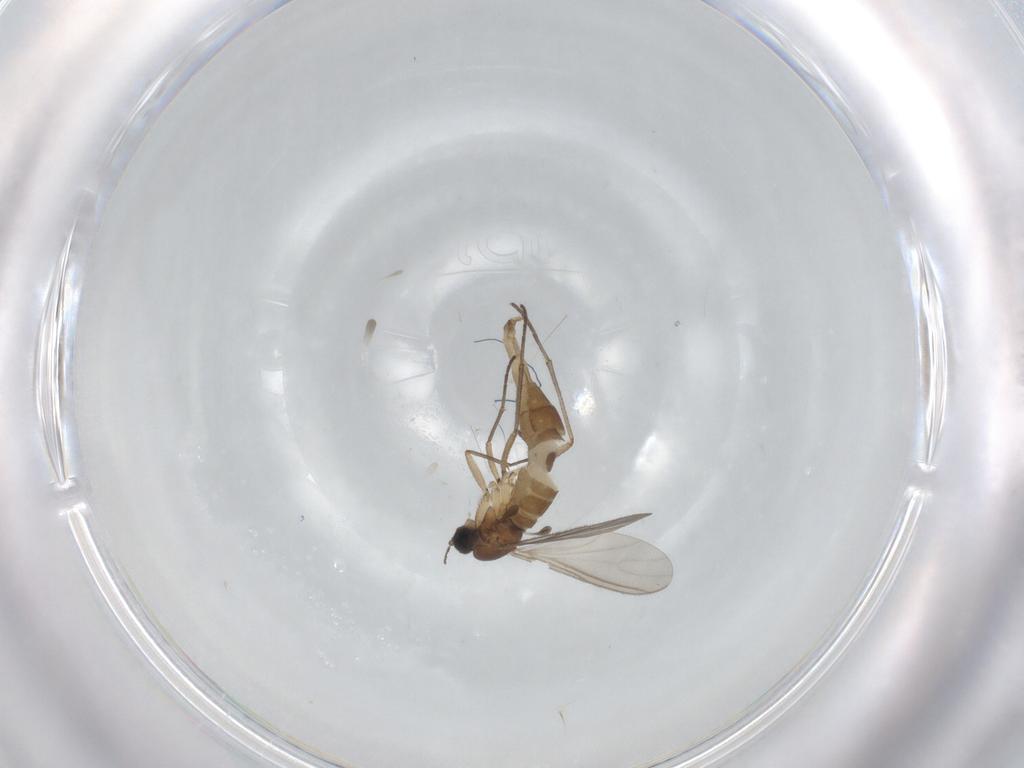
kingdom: Animalia
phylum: Arthropoda
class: Insecta
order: Diptera
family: Sciaridae
